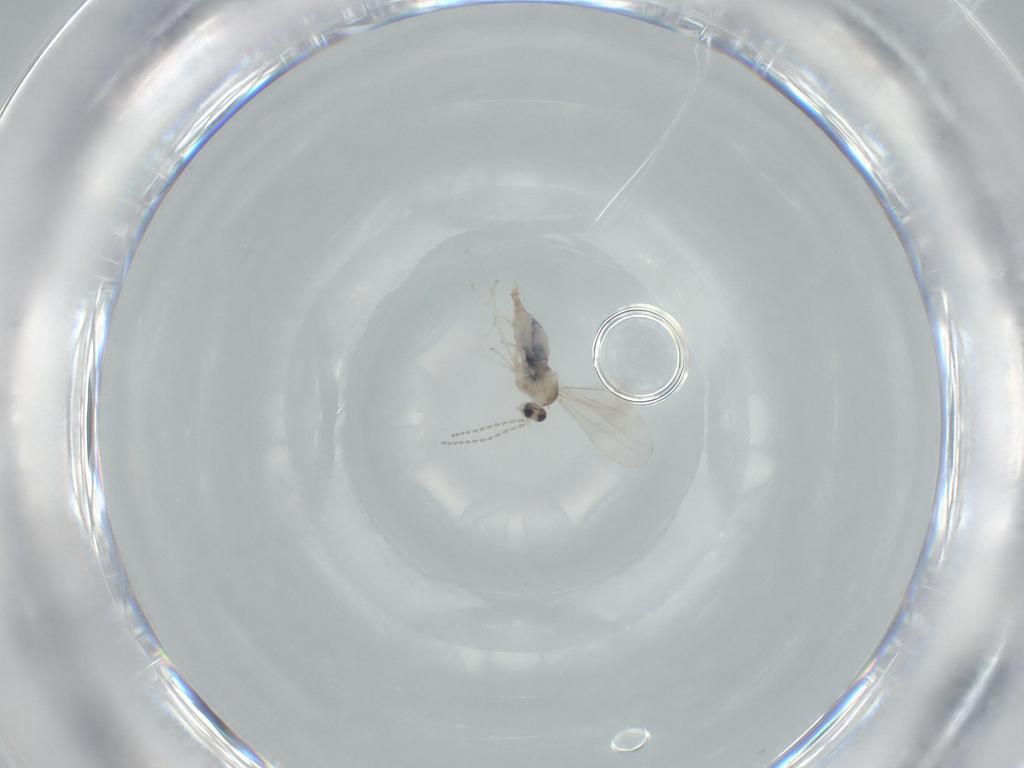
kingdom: Animalia
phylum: Arthropoda
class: Insecta
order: Diptera
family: Cecidomyiidae
